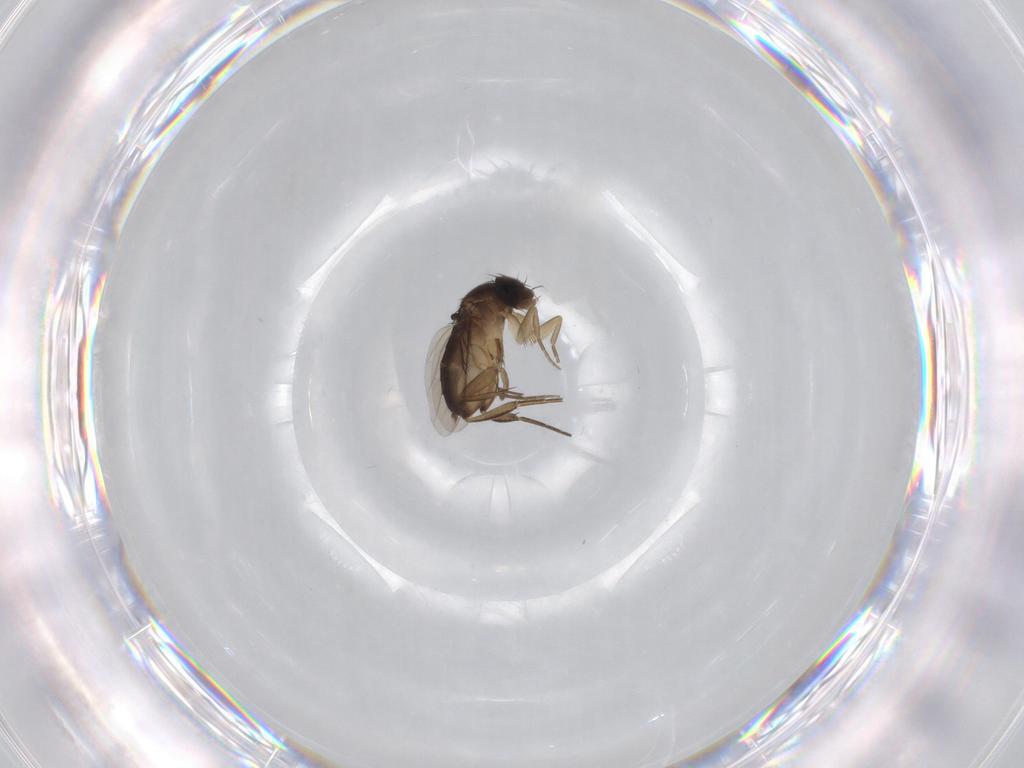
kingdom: Animalia
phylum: Arthropoda
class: Insecta
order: Diptera
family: Phoridae
